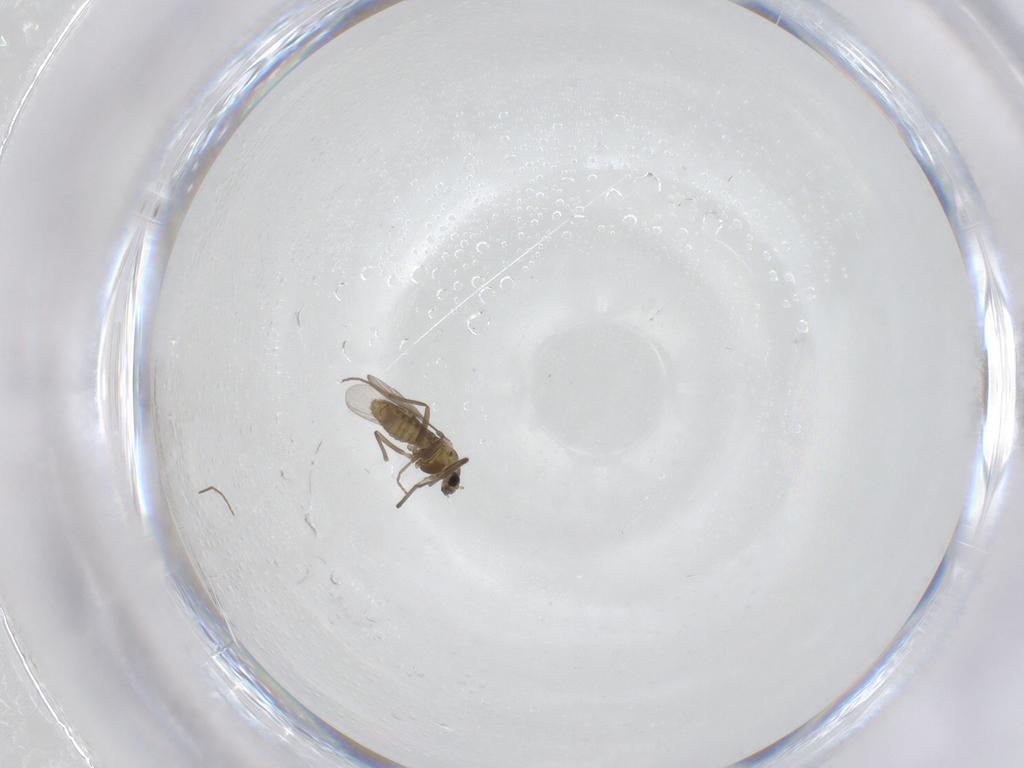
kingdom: Animalia
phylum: Arthropoda
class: Insecta
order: Diptera
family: Chironomidae
